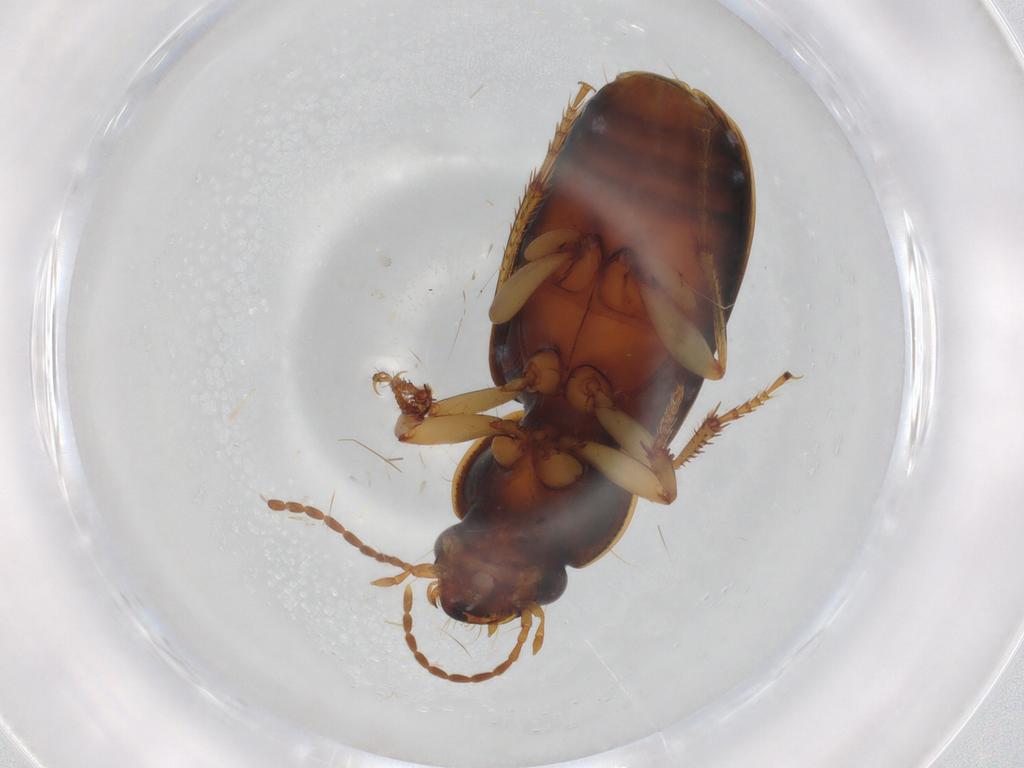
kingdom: Animalia
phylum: Arthropoda
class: Insecta
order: Coleoptera
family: Carabidae
